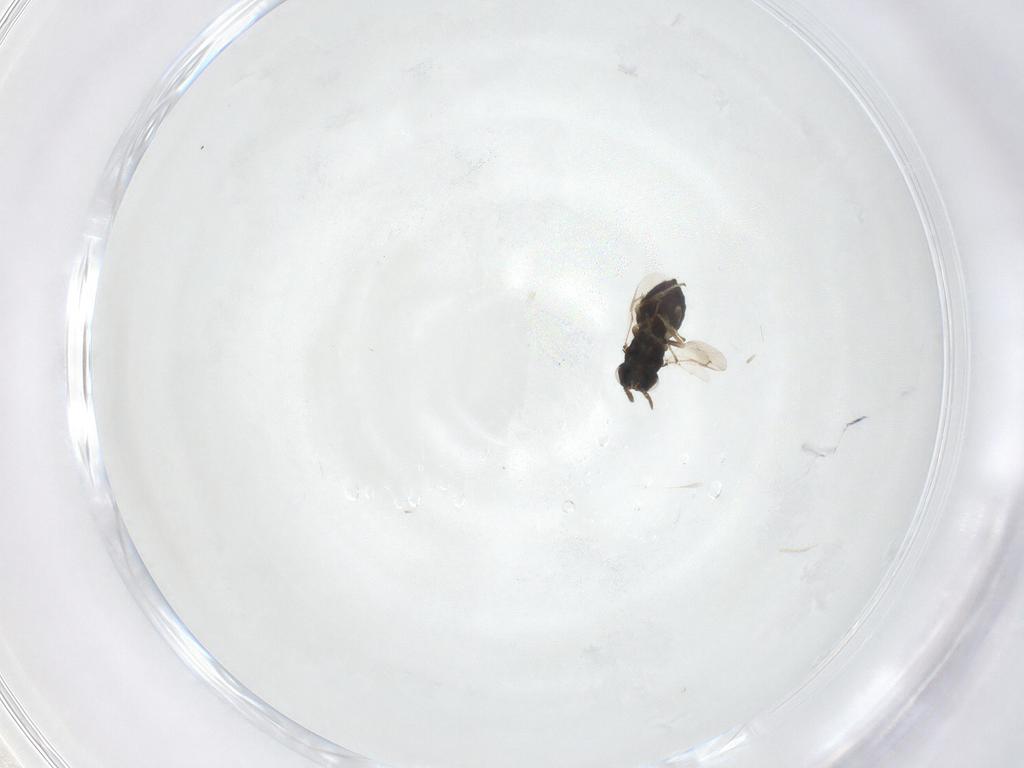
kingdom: Animalia
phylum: Arthropoda
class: Insecta
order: Hymenoptera
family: Pteromalidae
